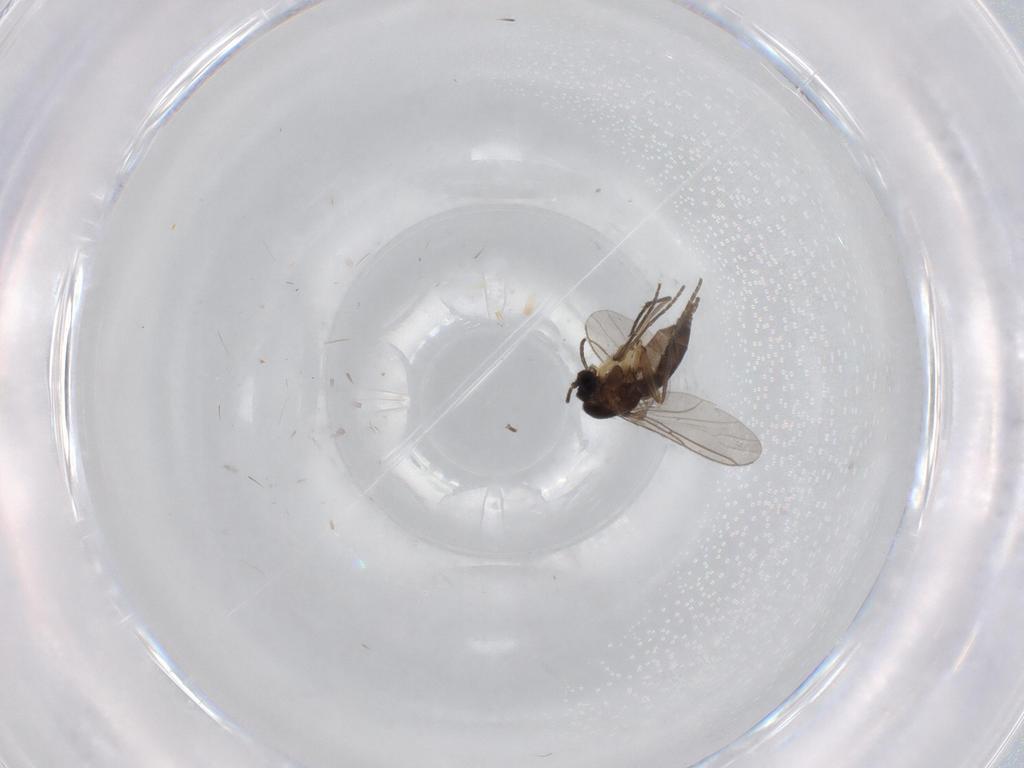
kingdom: Animalia
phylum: Arthropoda
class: Insecta
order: Diptera
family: Sciaridae
